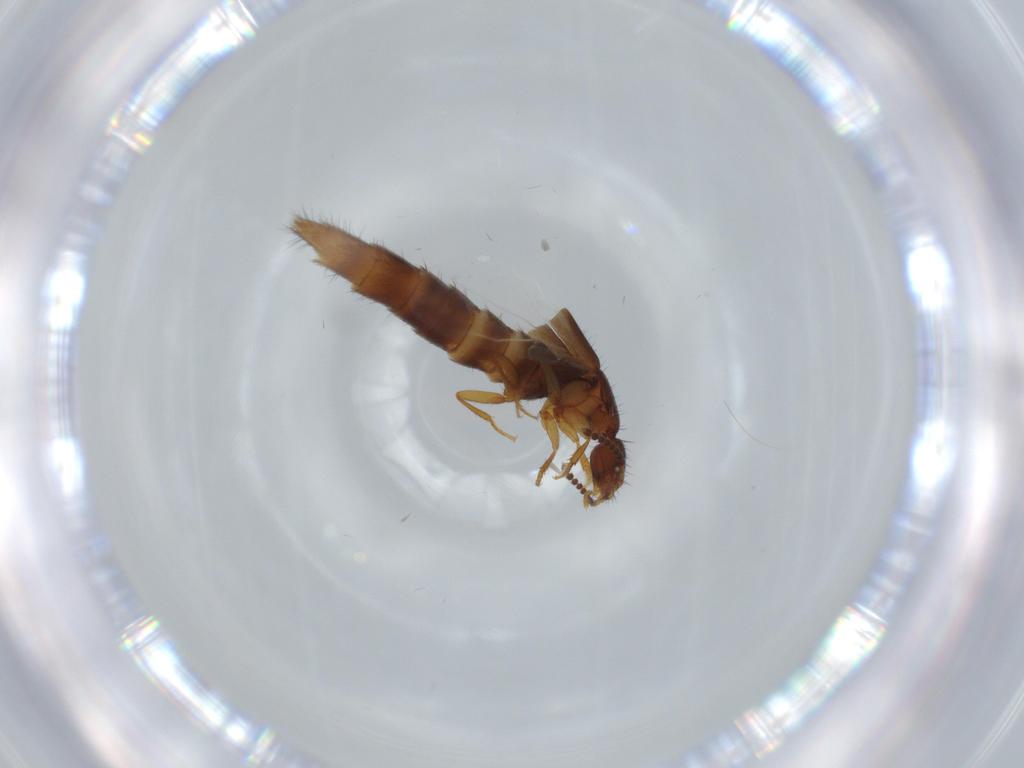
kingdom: Animalia
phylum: Arthropoda
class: Insecta
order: Coleoptera
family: Staphylinidae
